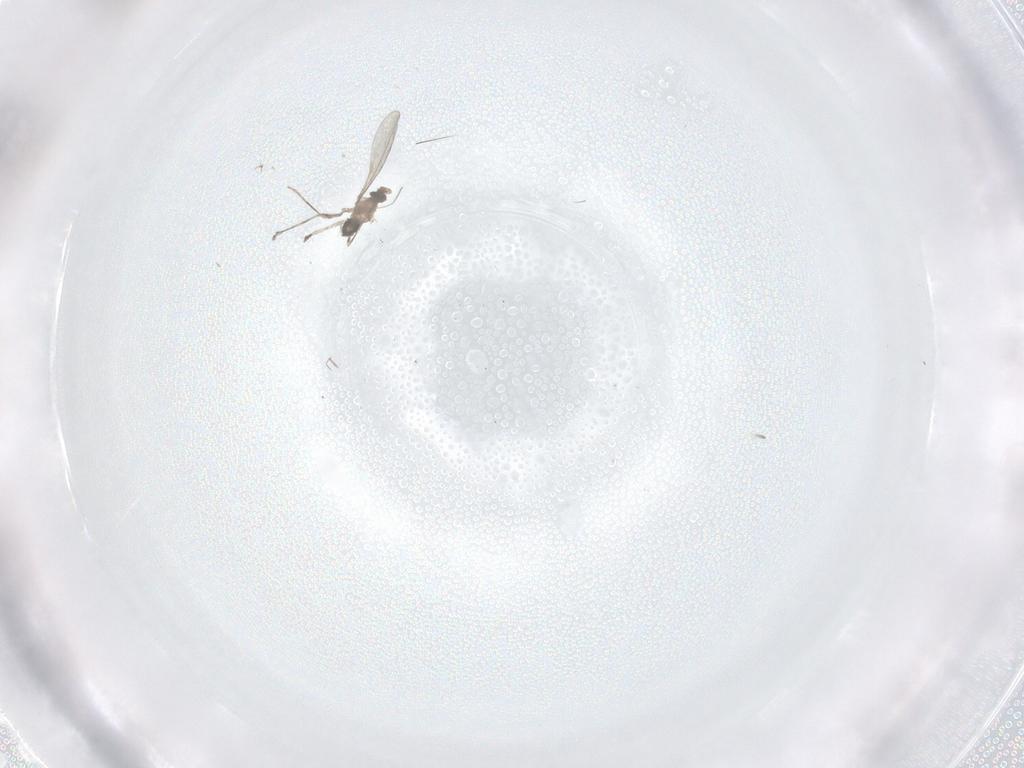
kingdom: Animalia
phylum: Arthropoda
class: Insecta
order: Diptera
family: Cecidomyiidae
